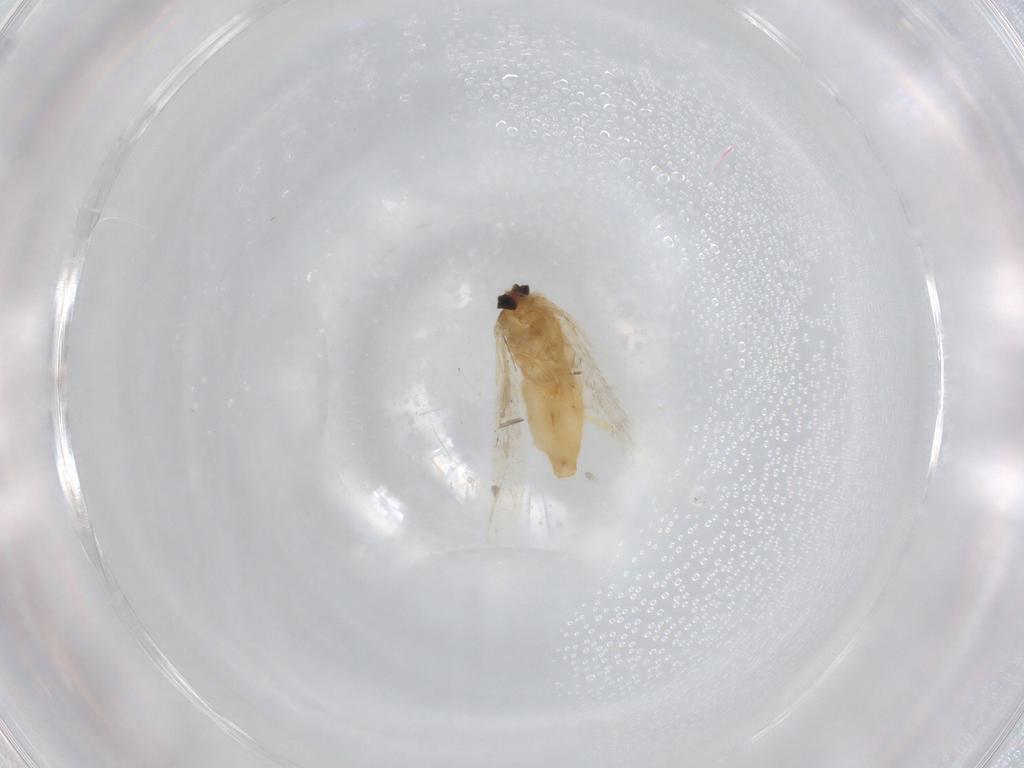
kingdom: Animalia
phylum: Arthropoda
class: Insecta
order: Lepidoptera
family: Nepticulidae
